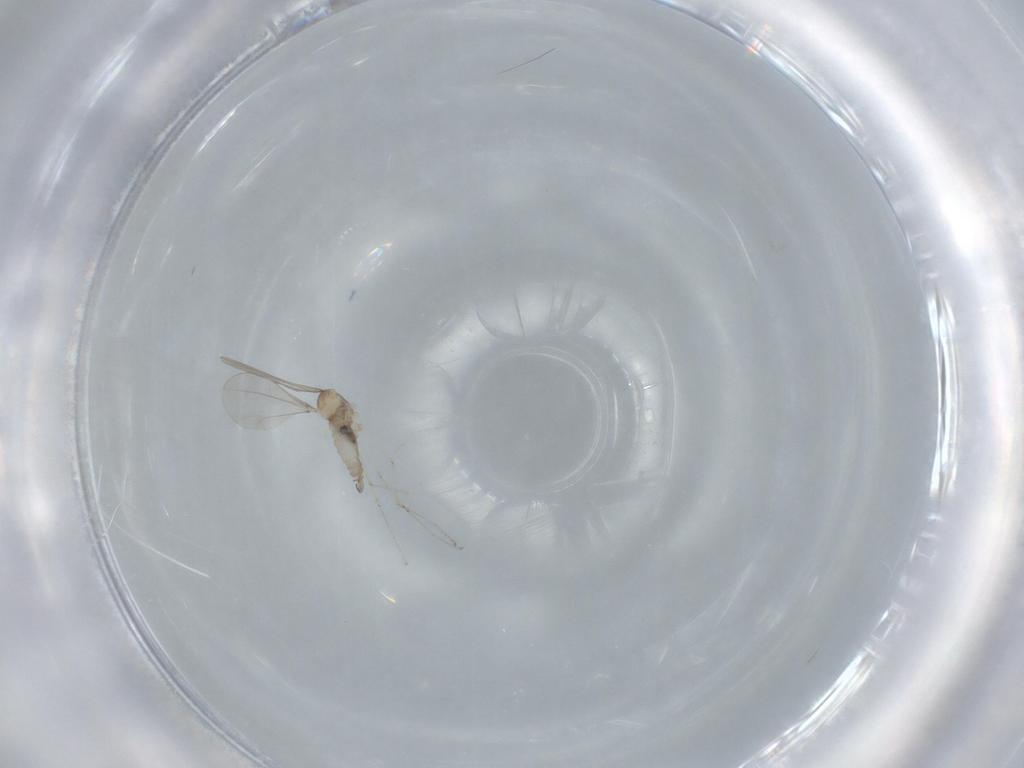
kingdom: Animalia
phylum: Arthropoda
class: Insecta
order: Diptera
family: Cecidomyiidae
